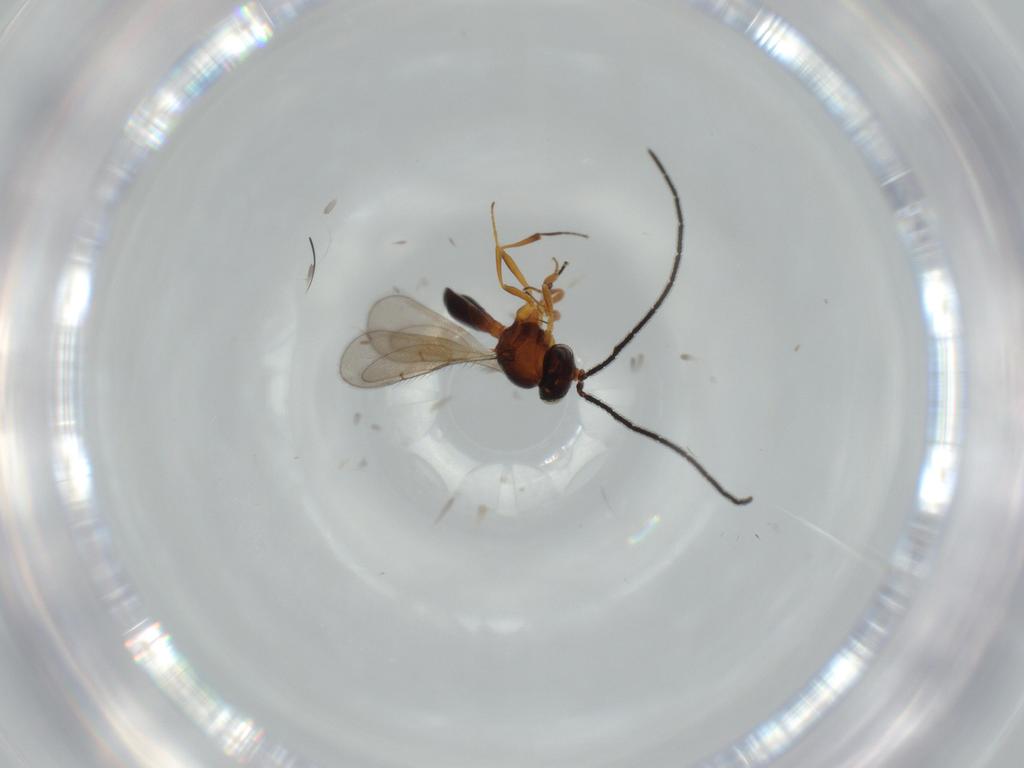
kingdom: Animalia
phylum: Arthropoda
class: Insecta
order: Hymenoptera
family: Scelionidae
